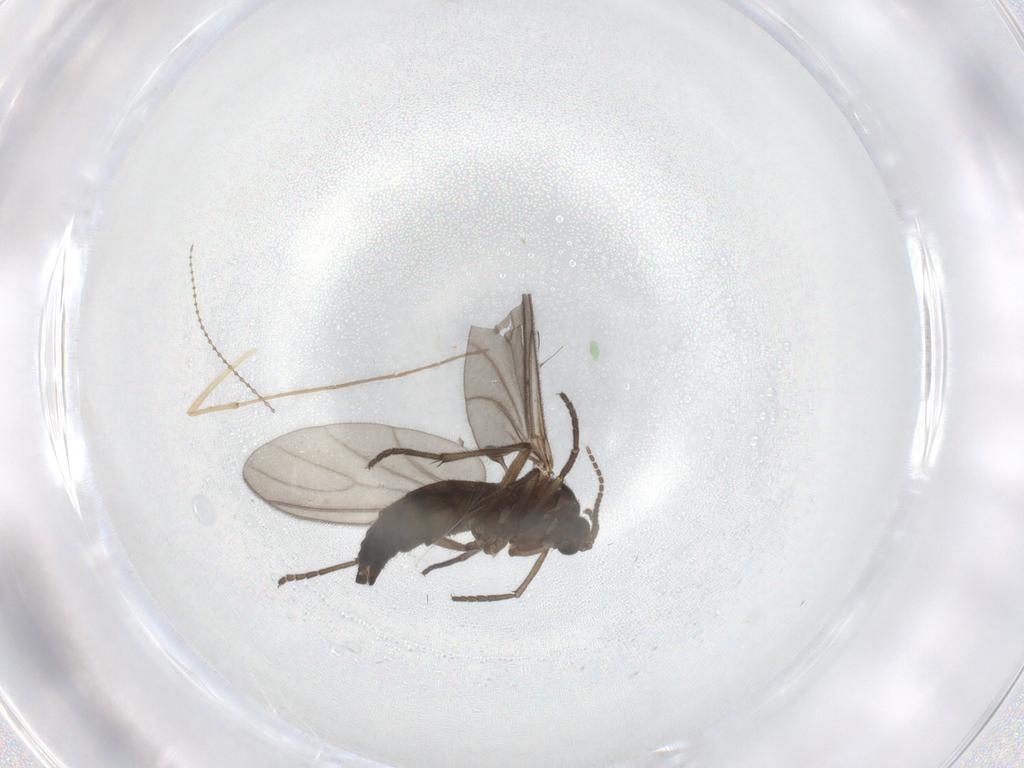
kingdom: Animalia
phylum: Arthropoda
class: Insecta
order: Diptera
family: Sciaridae
